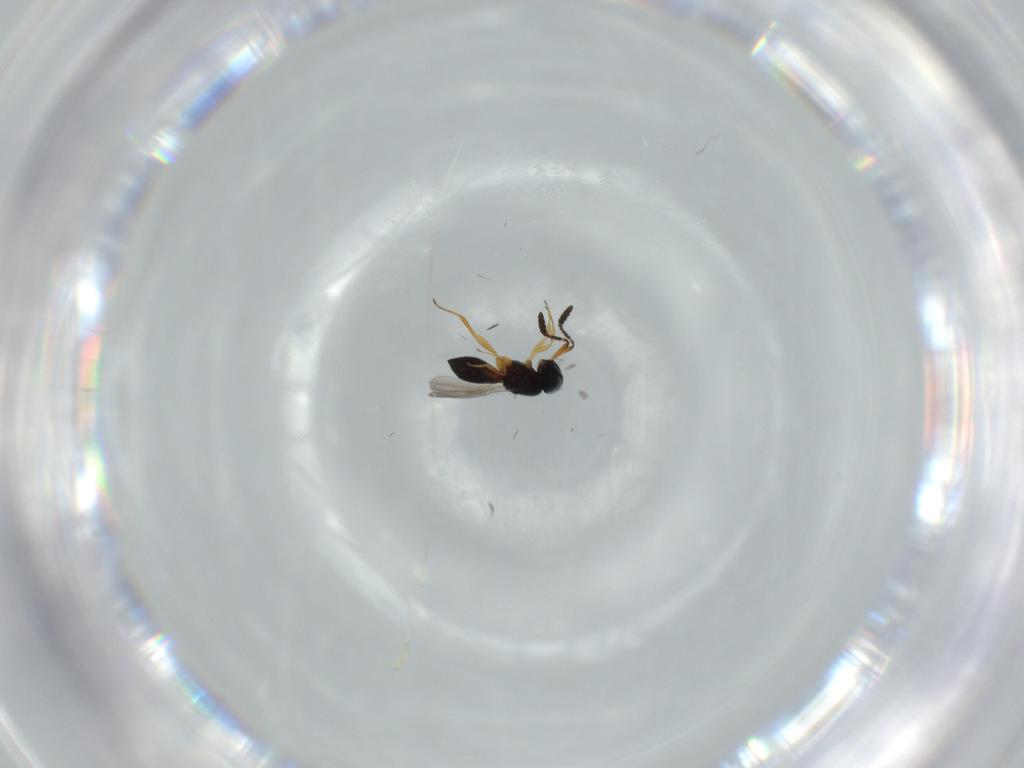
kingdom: Animalia
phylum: Arthropoda
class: Insecta
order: Hymenoptera
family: Scelionidae
